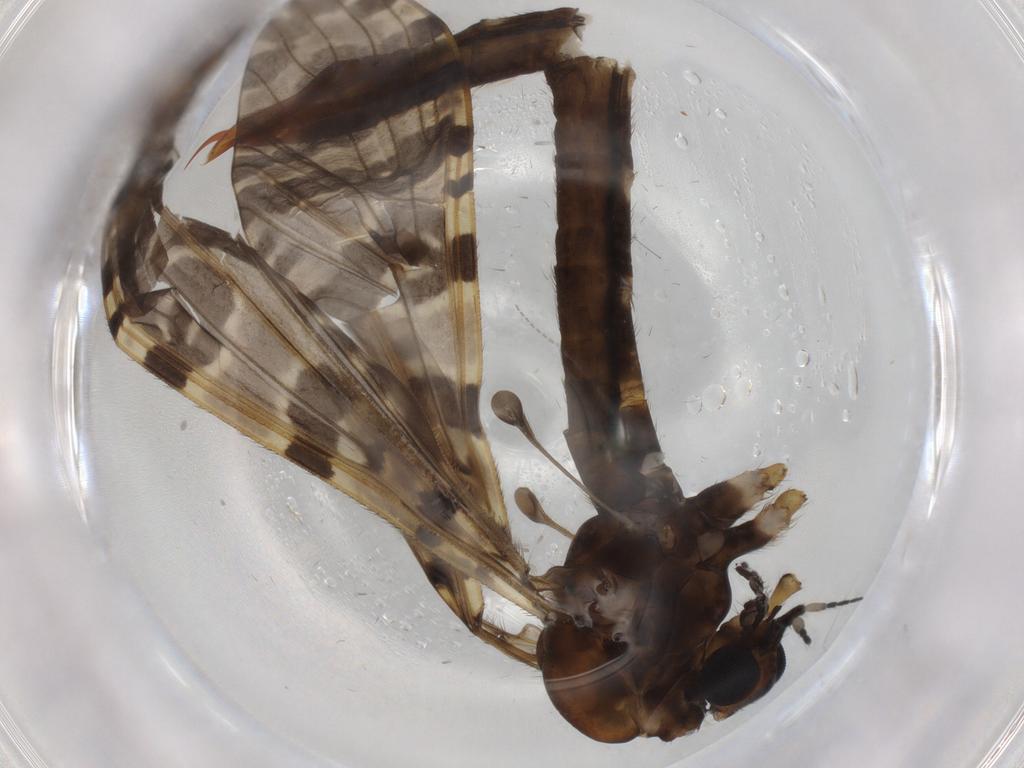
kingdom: Animalia
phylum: Arthropoda
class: Insecta
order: Diptera
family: Limoniidae
